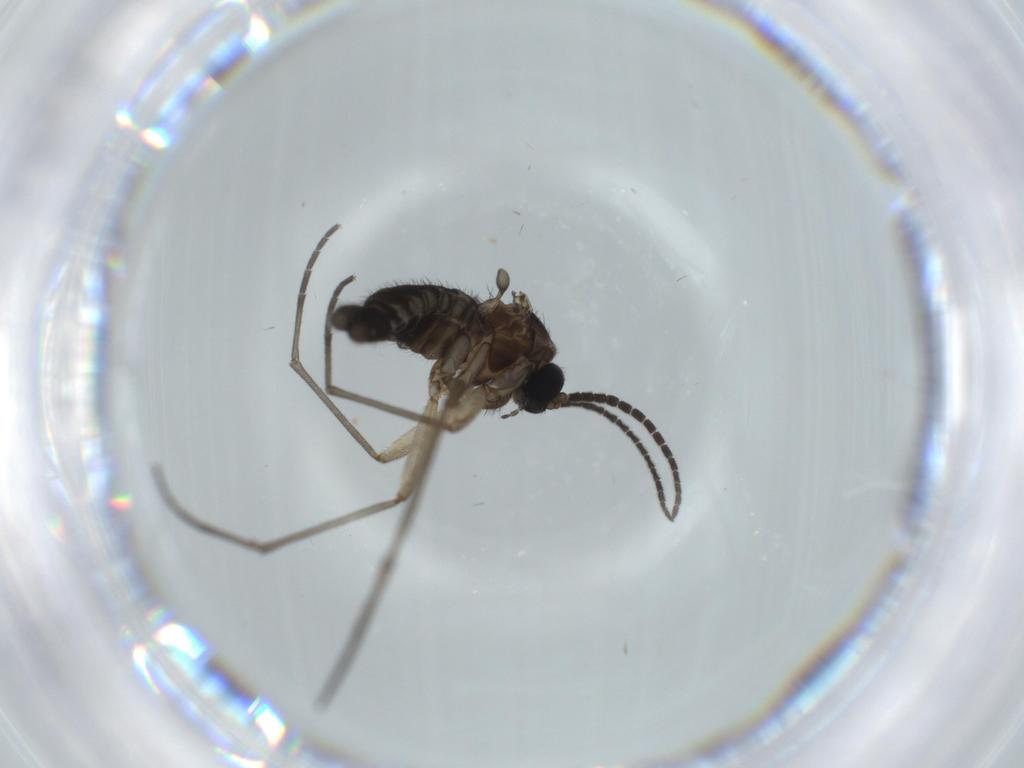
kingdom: Animalia
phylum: Arthropoda
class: Insecta
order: Diptera
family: Sciaridae
